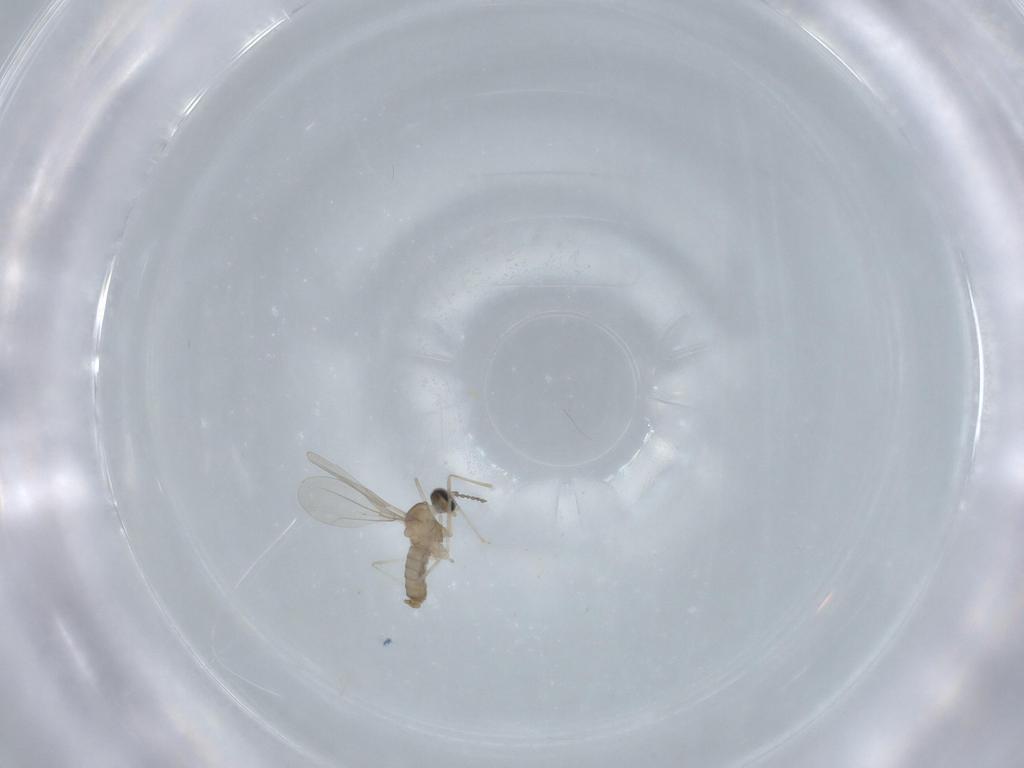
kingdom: Animalia
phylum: Arthropoda
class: Insecta
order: Diptera
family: Cecidomyiidae
